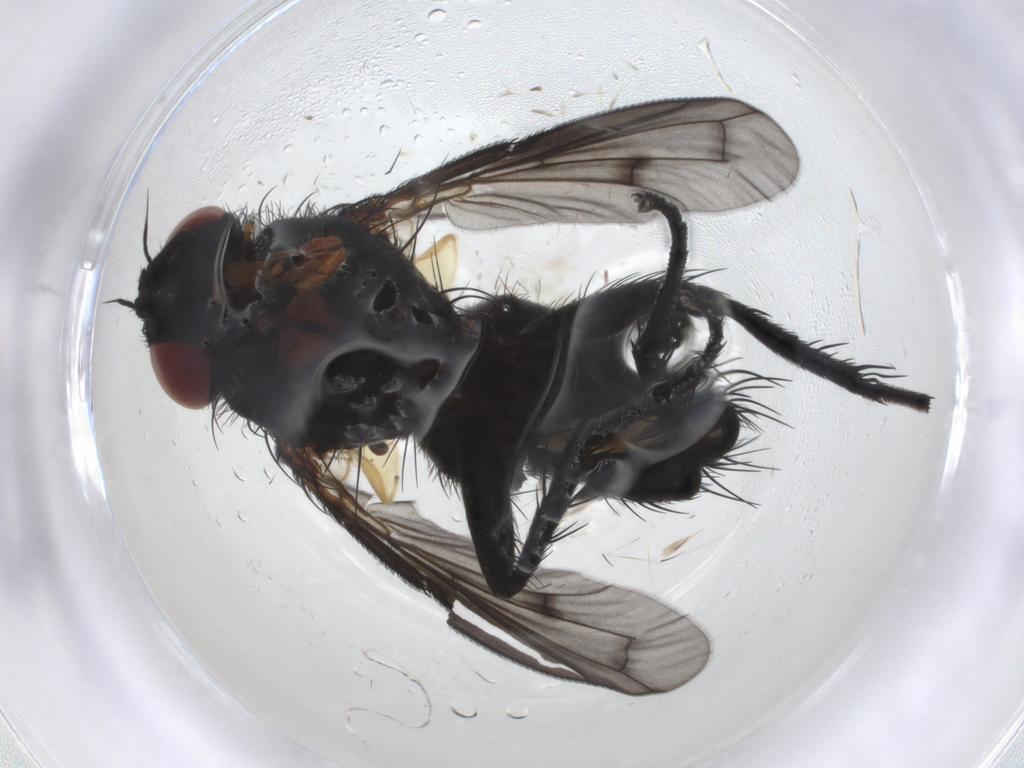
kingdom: Animalia
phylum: Arthropoda
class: Insecta
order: Diptera
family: Tachinidae
